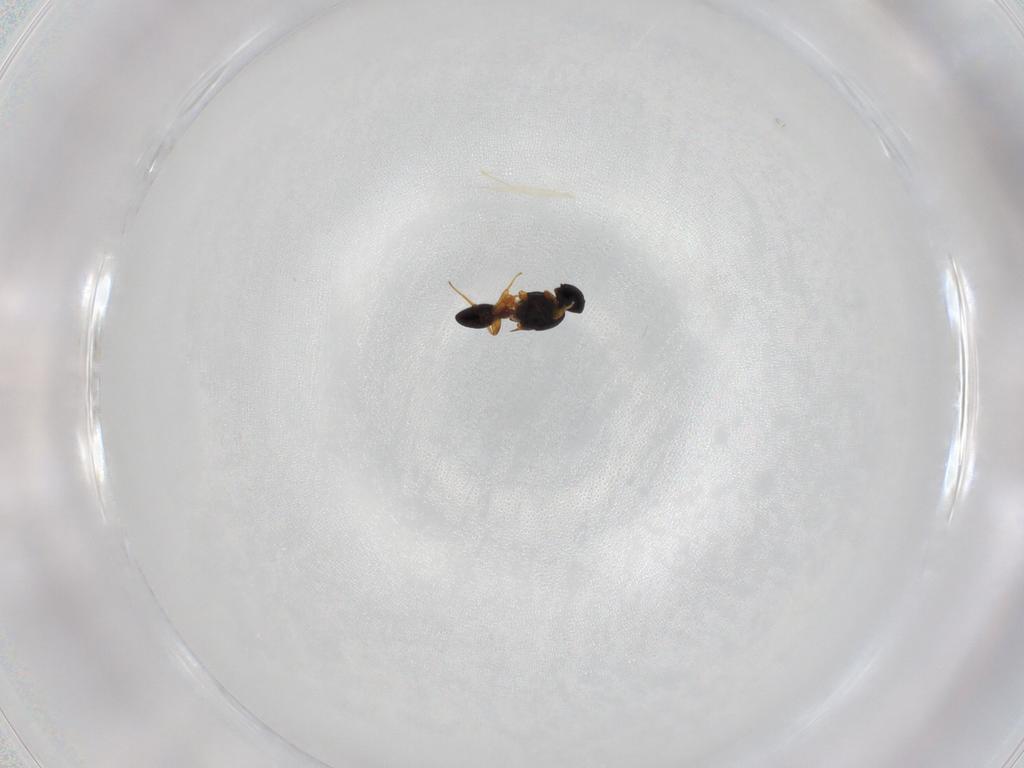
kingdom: Animalia
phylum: Arthropoda
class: Insecta
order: Hymenoptera
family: Platygastridae
